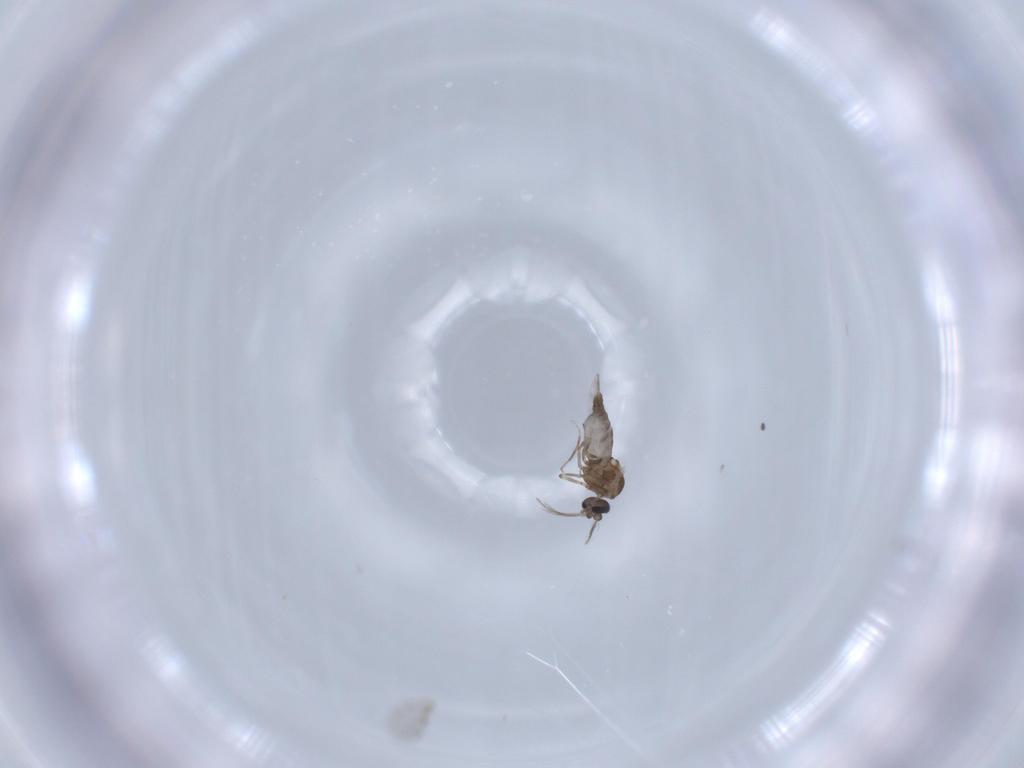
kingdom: Animalia
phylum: Arthropoda
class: Insecta
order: Diptera
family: Ceratopogonidae
